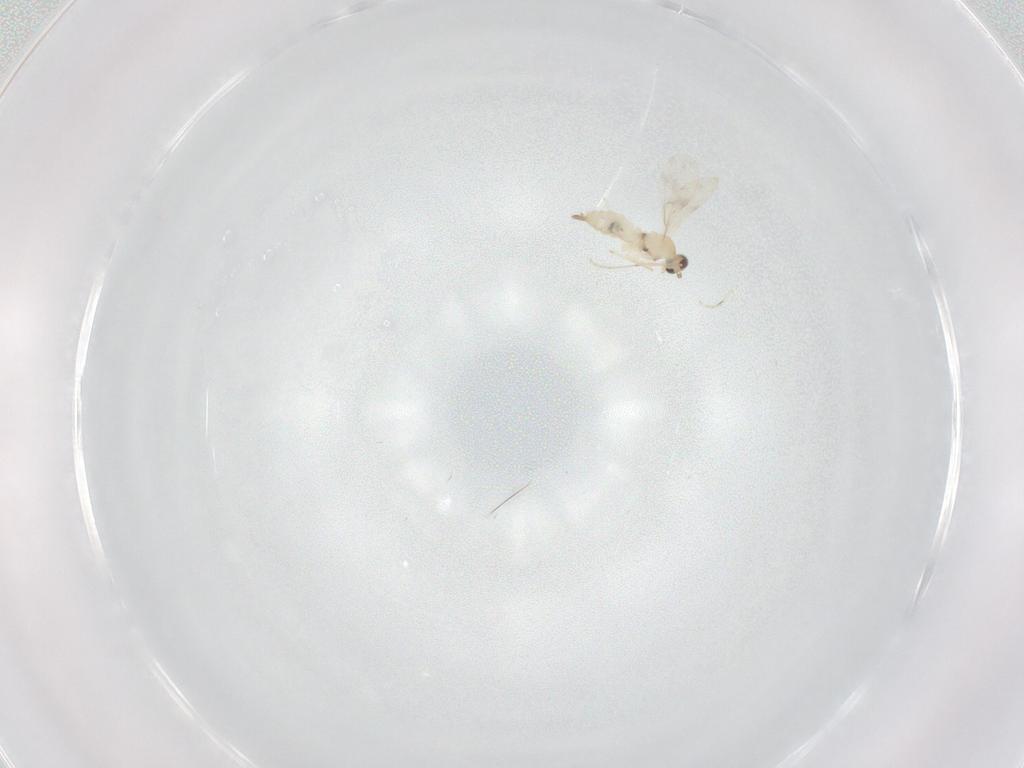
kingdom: Animalia
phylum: Arthropoda
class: Insecta
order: Diptera
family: Cecidomyiidae
